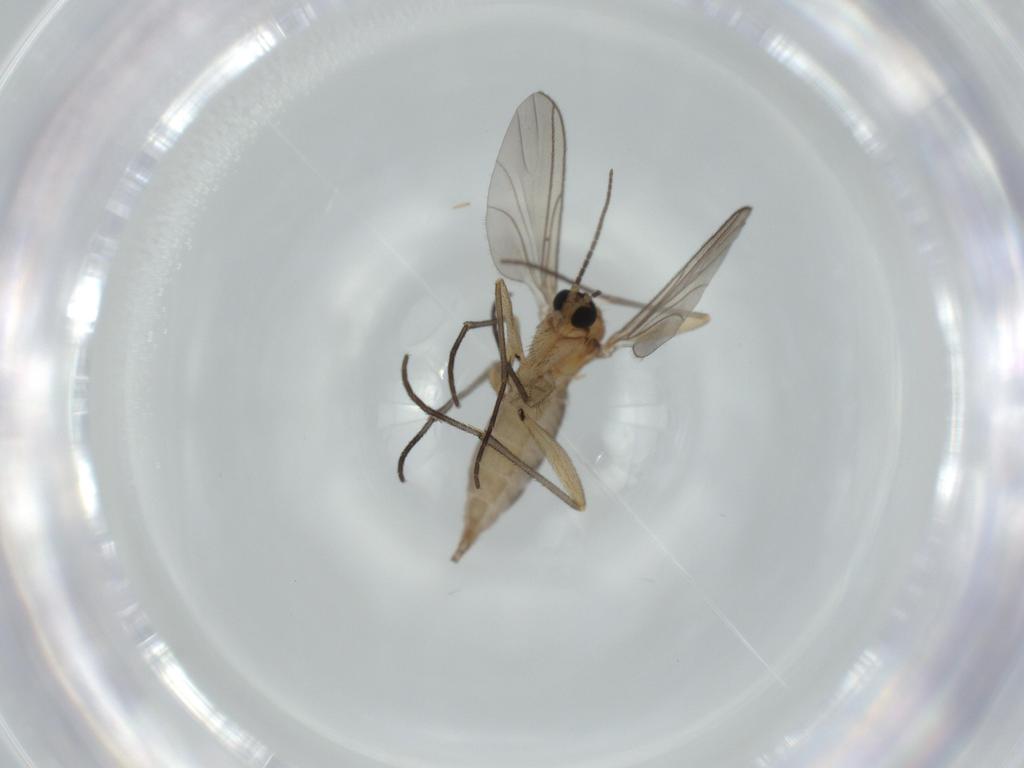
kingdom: Animalia
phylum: Arthropoda
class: Insecta
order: Diptera
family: Sciaridae
